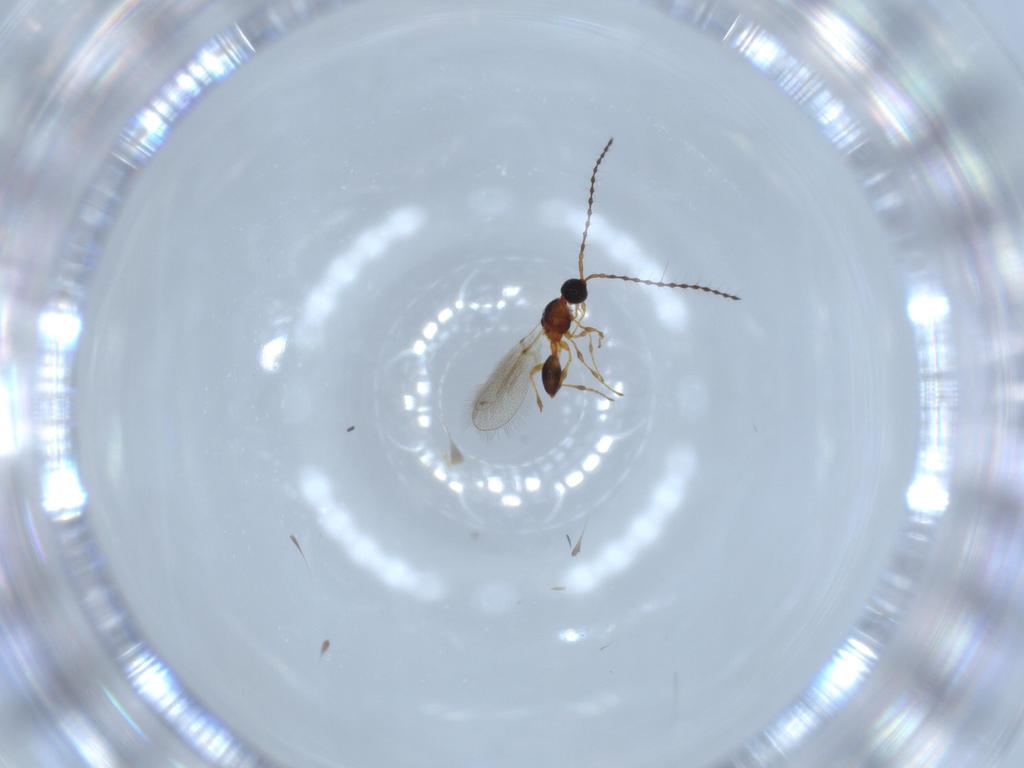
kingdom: Animalia
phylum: Arthropoda
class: Insecta
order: Hymenoptera
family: Diapriidae
